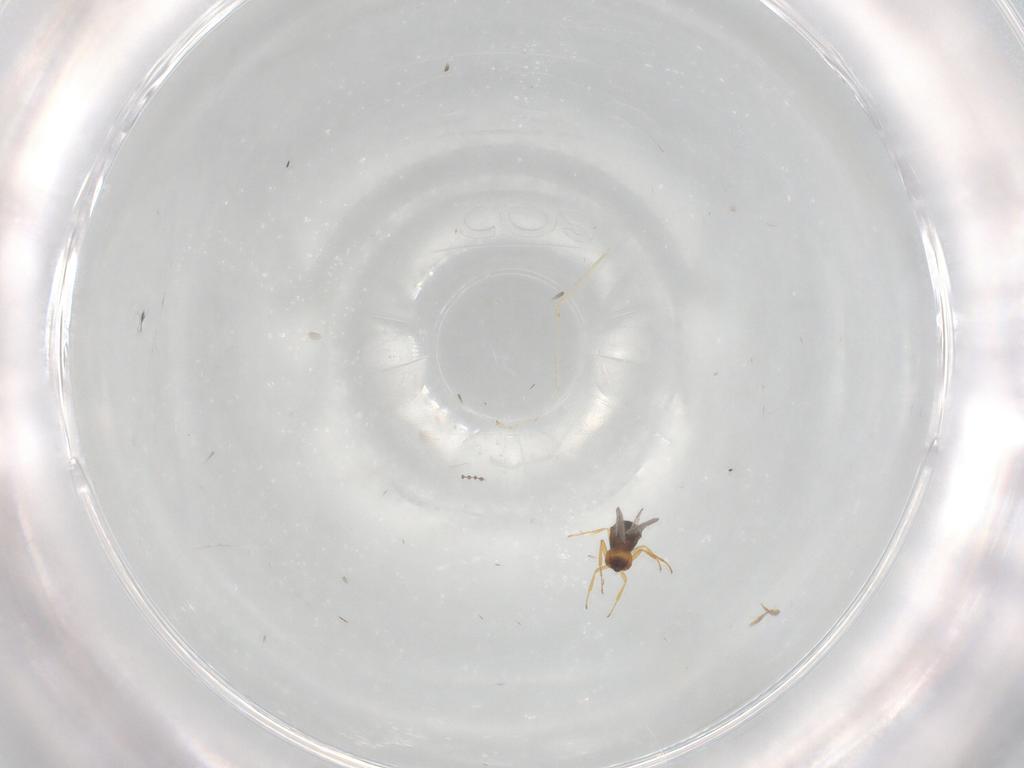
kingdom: Animalia
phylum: Arthropoda
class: Insecta
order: Hymenoptera
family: Scelionidae
